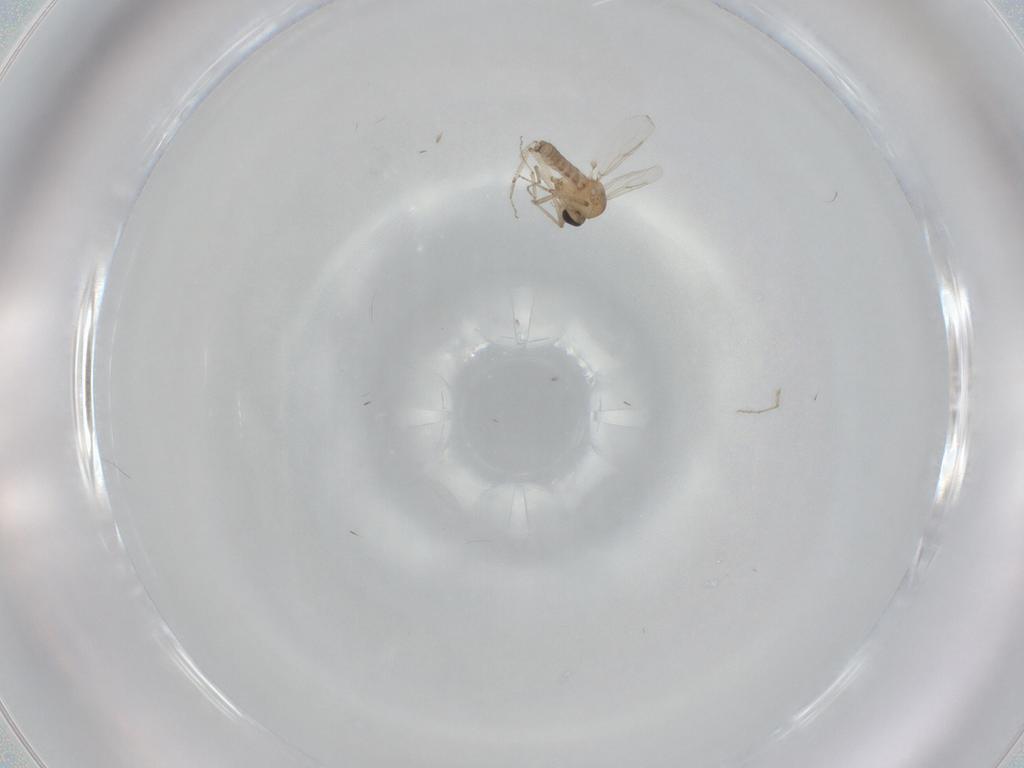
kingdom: Animalia
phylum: Arthropoda
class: Insecta
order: Diptera
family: Ceratopogonidae
